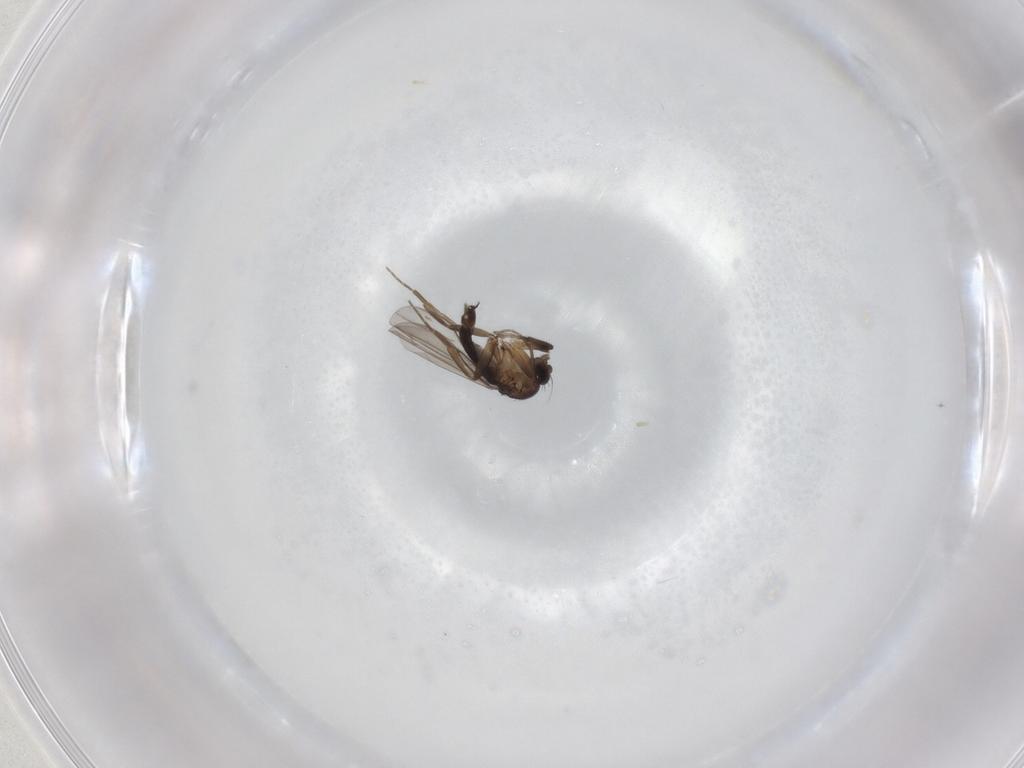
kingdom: Animalia
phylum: Arthropoda
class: Insecta
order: Diptera
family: Phoridae
